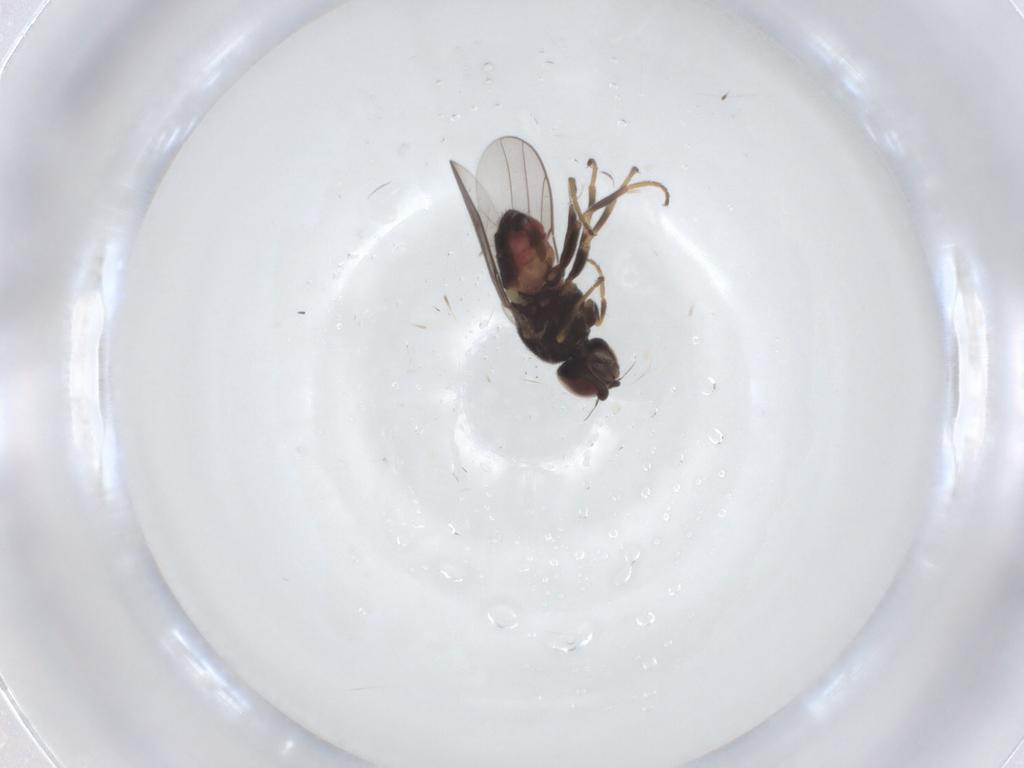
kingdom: Animalia
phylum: Arthropoda
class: Insecta
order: Diptera
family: Chloropidae
